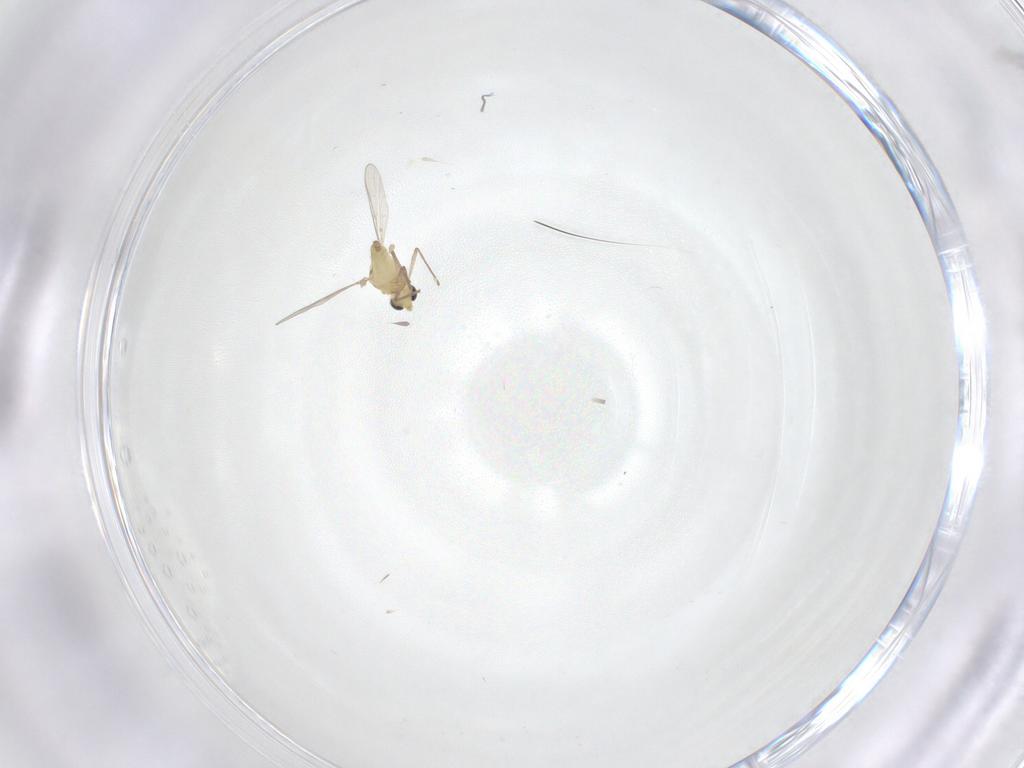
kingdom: Animalia
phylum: Arthropoda
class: Insecta
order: Diptera
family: Chironomidae
